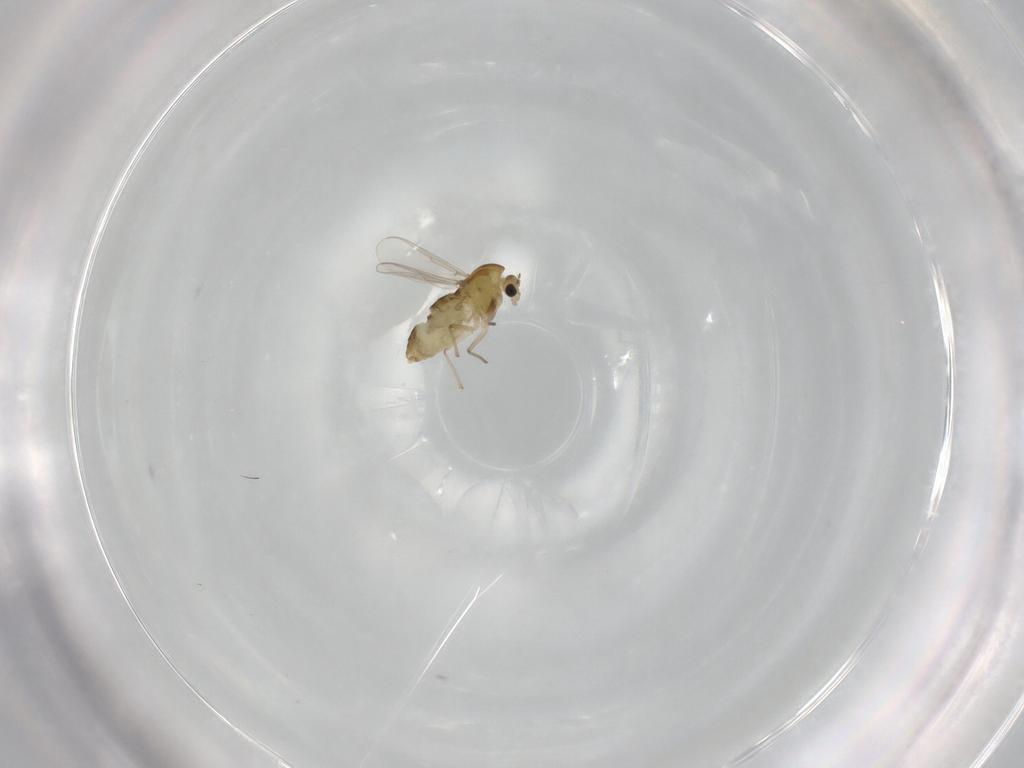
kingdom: Animalia
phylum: Arthropoda
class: Insecta
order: Diptera
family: Chironomidae
